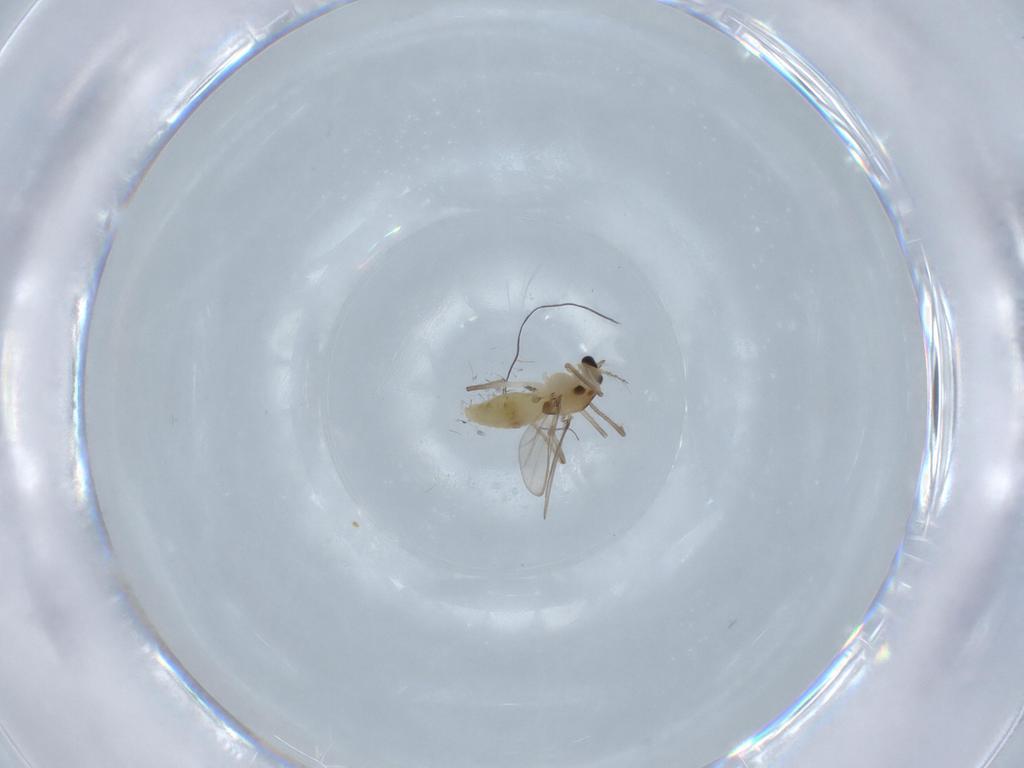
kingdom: Animalia
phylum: Arthropoda
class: Insecta
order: Diptera
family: Chironomidae
